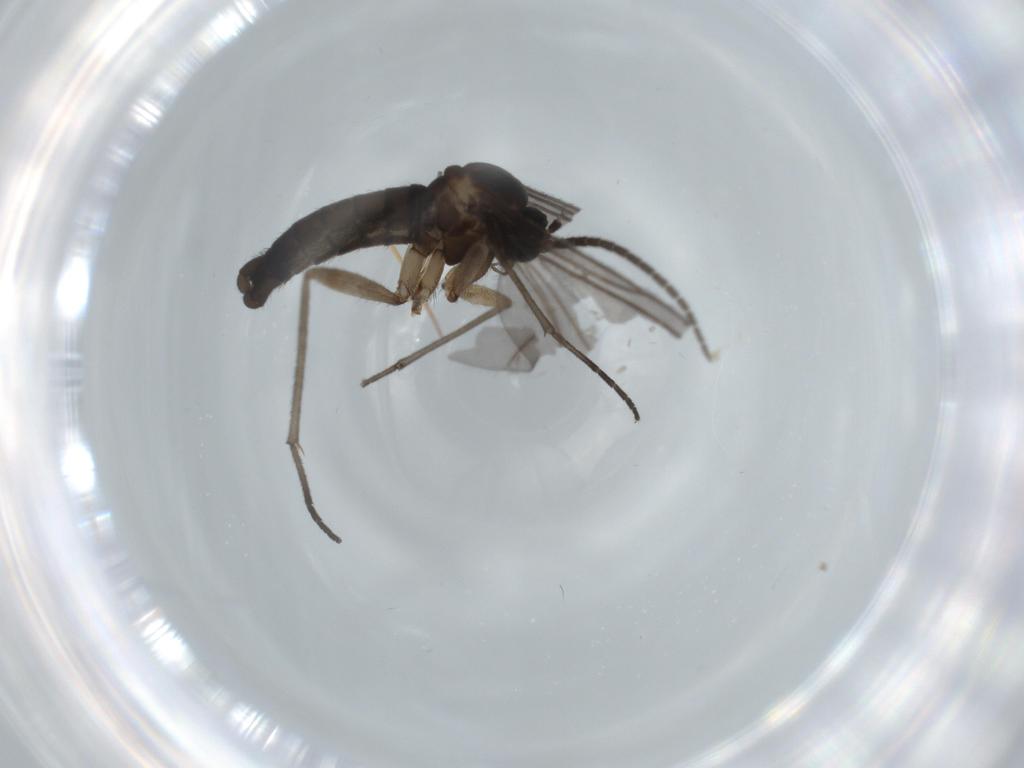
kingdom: Animalia
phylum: Arthropoda
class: Insecta
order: Diptera
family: Sciaridae
